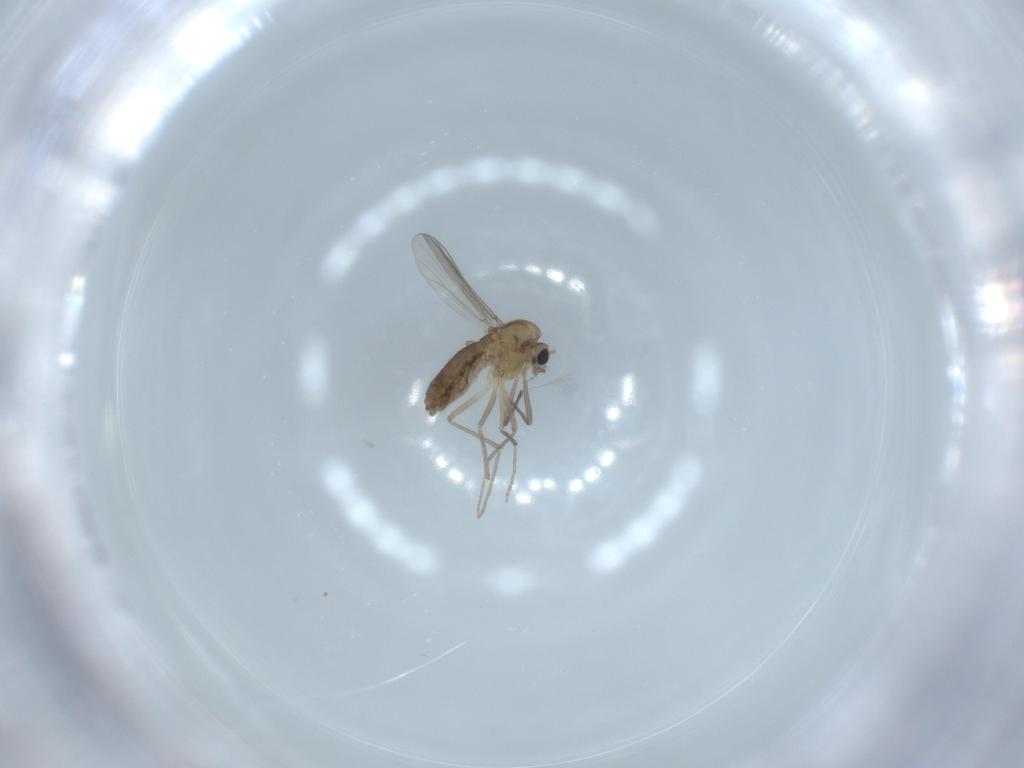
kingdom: Animalia
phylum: Arthropoda
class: Insecta
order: Diptera
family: Chironomidae
